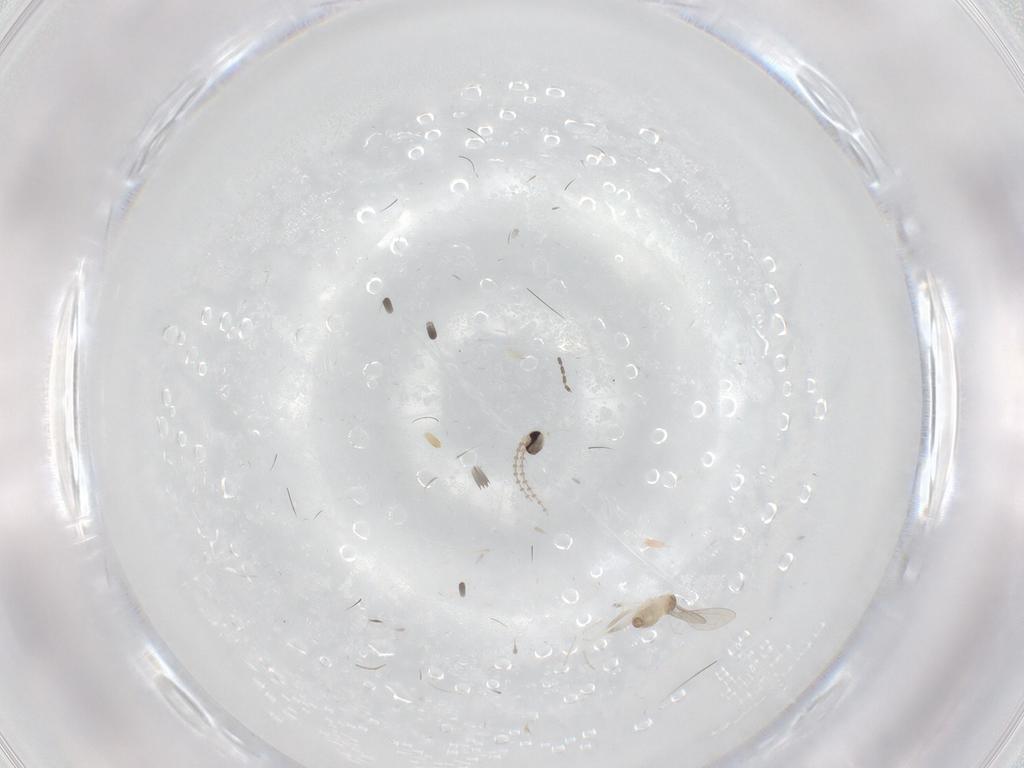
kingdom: Animalia
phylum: Arthropoda
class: Insecta
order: Diptera
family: Cecidomyiidae
